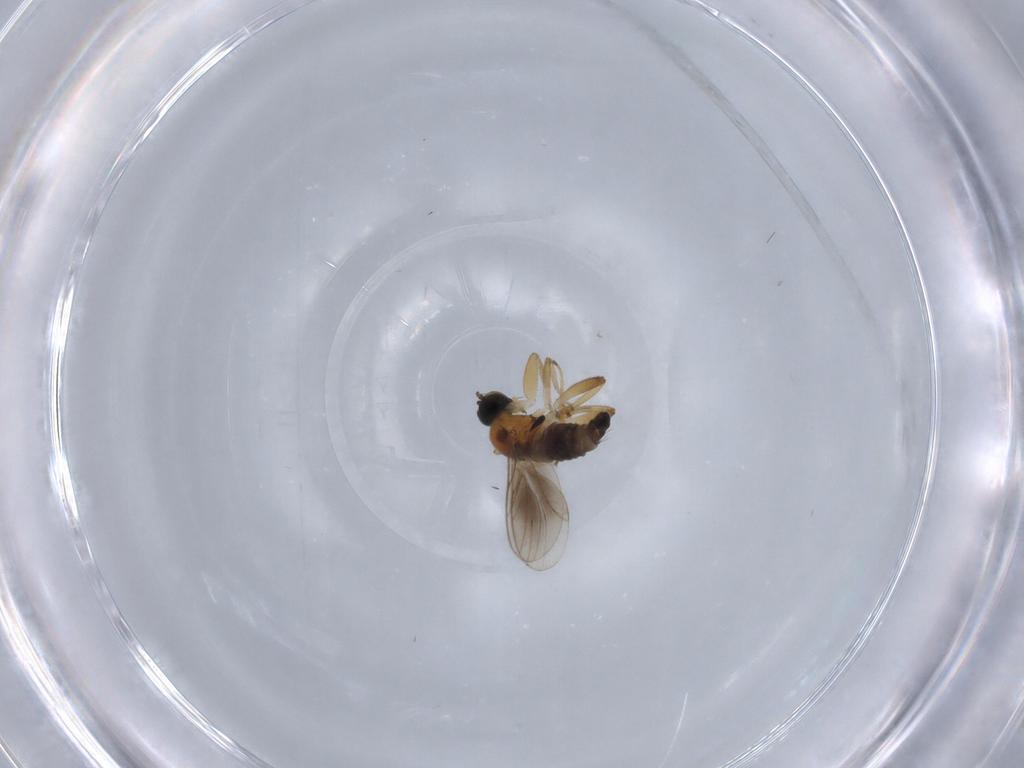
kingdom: Animalia
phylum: Arthropoda
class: Insecta
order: Diptera
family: Hybotidae
